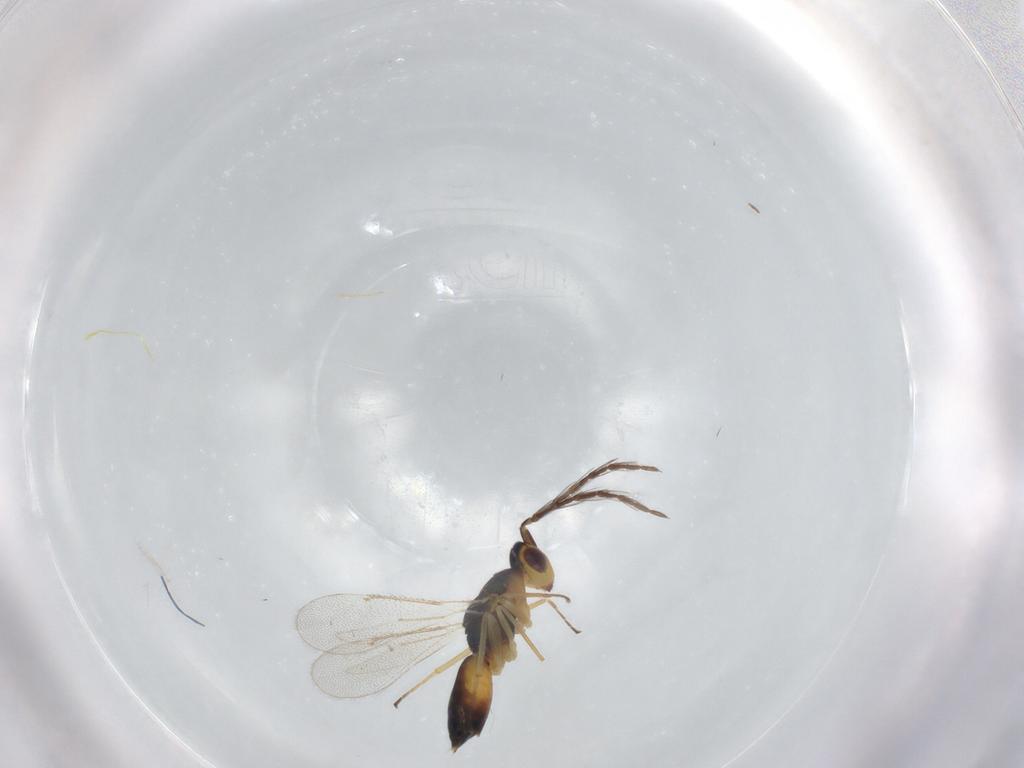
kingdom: Animalia
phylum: Arthropoda
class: Insecta
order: Hymenoptera
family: Eulophidae
